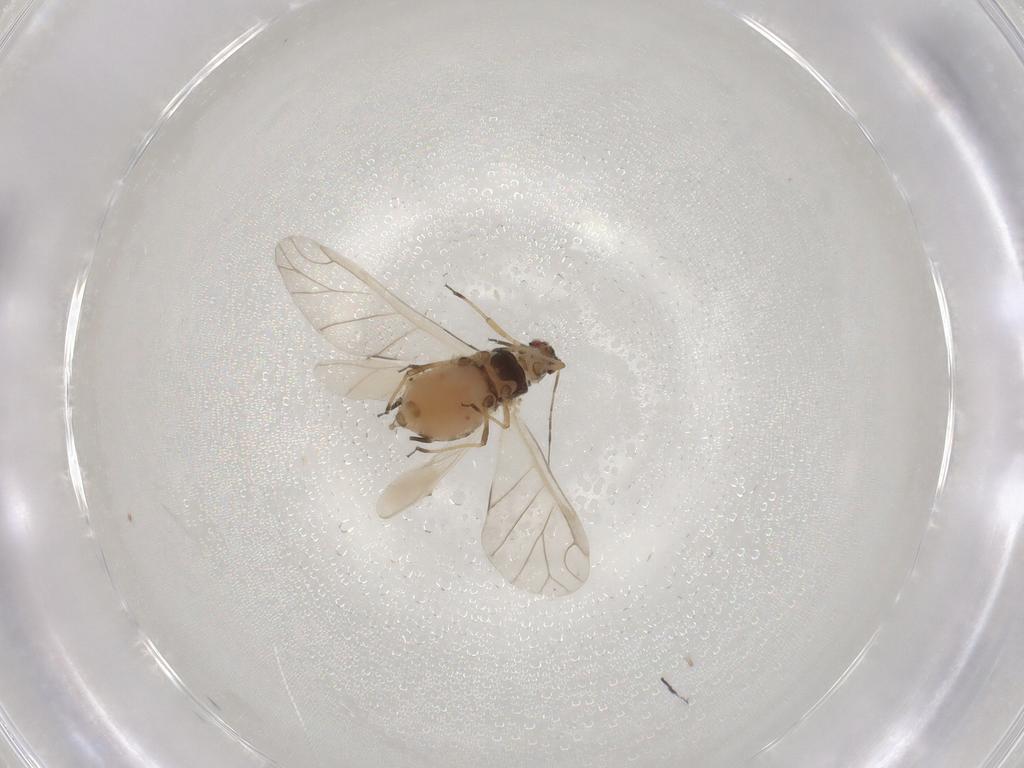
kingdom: Animalia
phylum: Arthropoda
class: Insecta
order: Hemiptera
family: Aphididae
